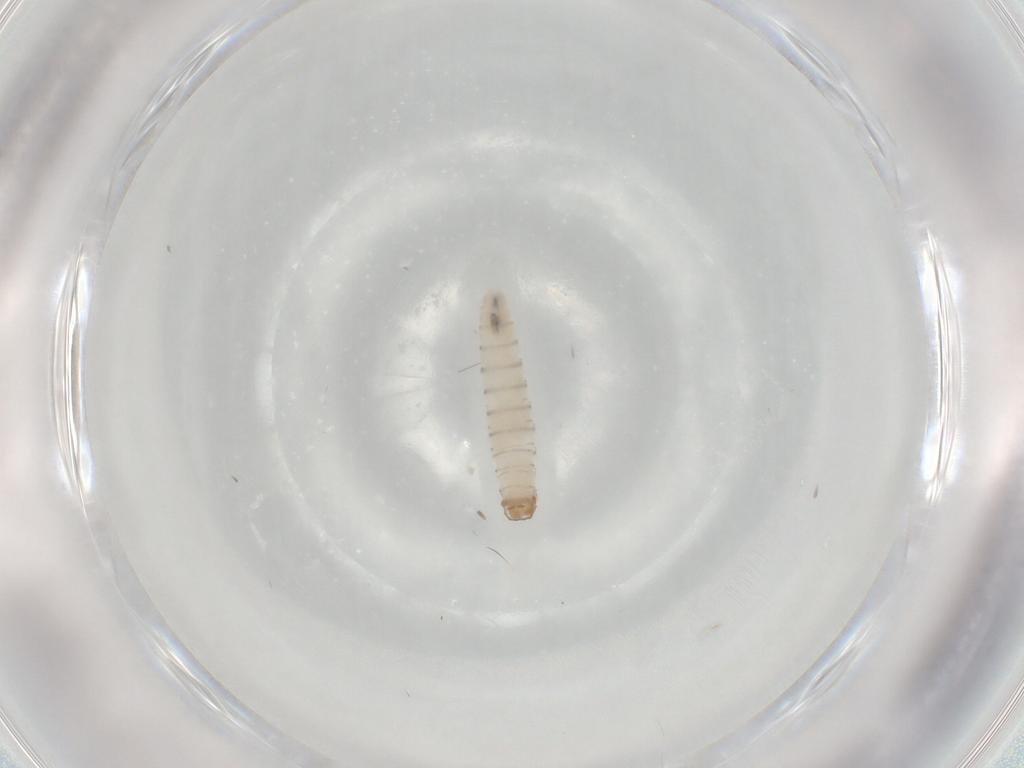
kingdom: Animalia
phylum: Arthropoda
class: Insecta
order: Diptera
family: Sarcophagidae
